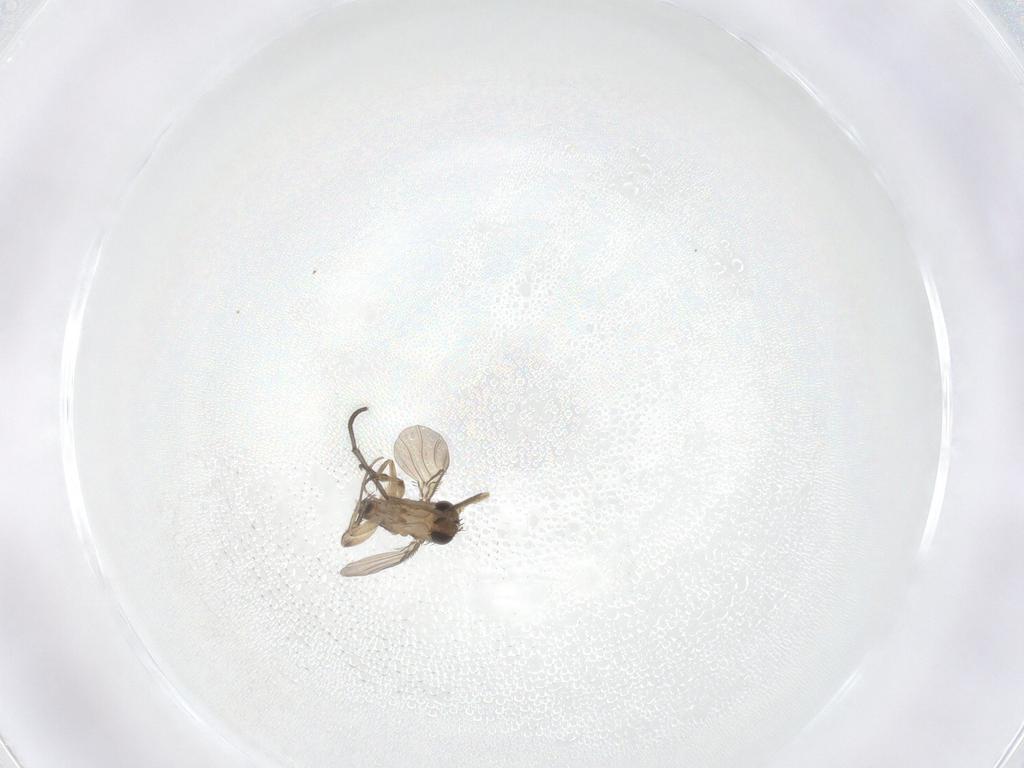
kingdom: Animalia
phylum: Arthropoda
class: Insecta
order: Diptera
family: Phoridae
